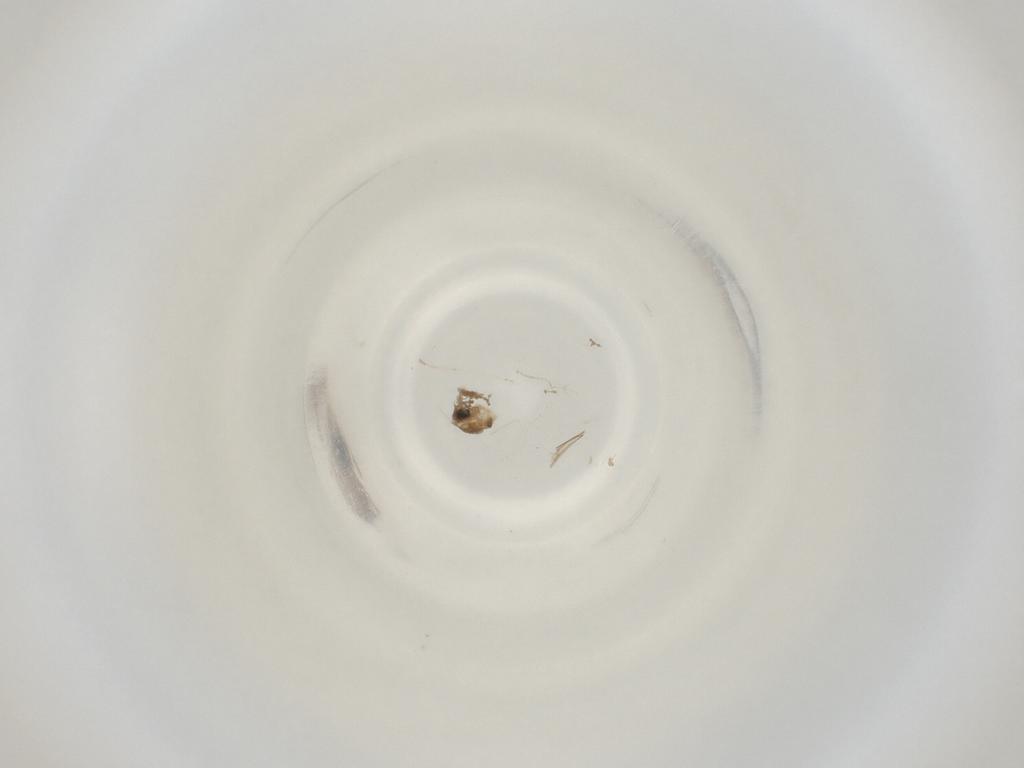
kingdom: Animalia
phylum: Arthropoda
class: Insecta
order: Diptera
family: Cecidomyiidae
